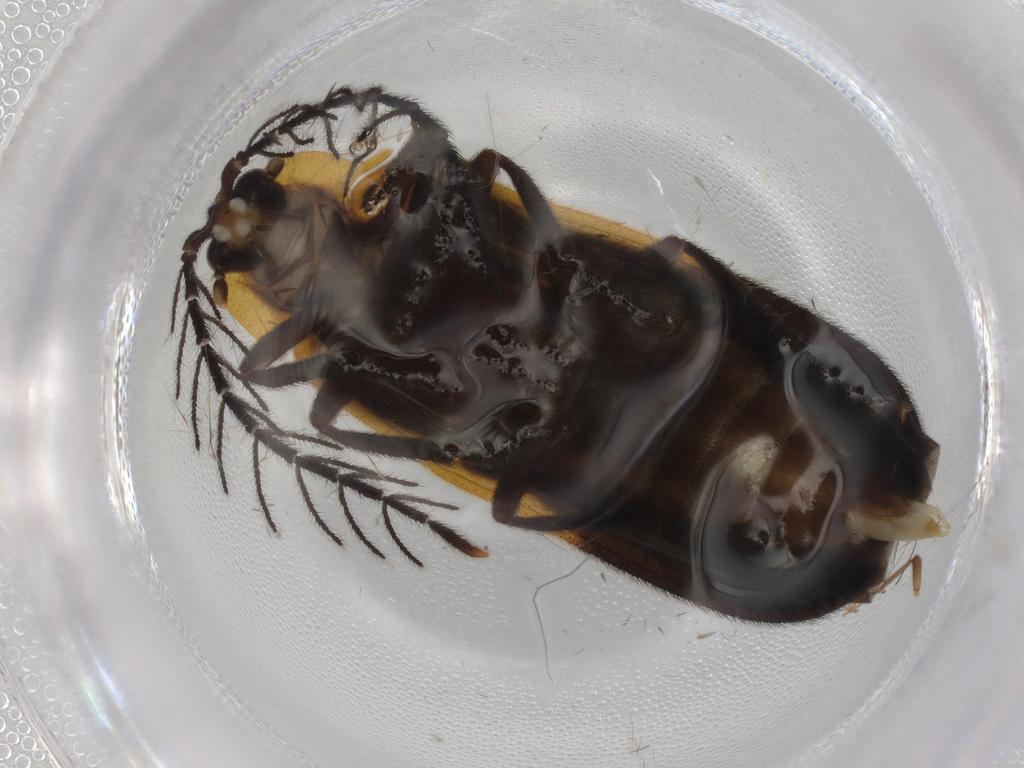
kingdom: Animalia
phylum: Arthropoda
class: Insecta
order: Coleoptera
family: Lampyridae
